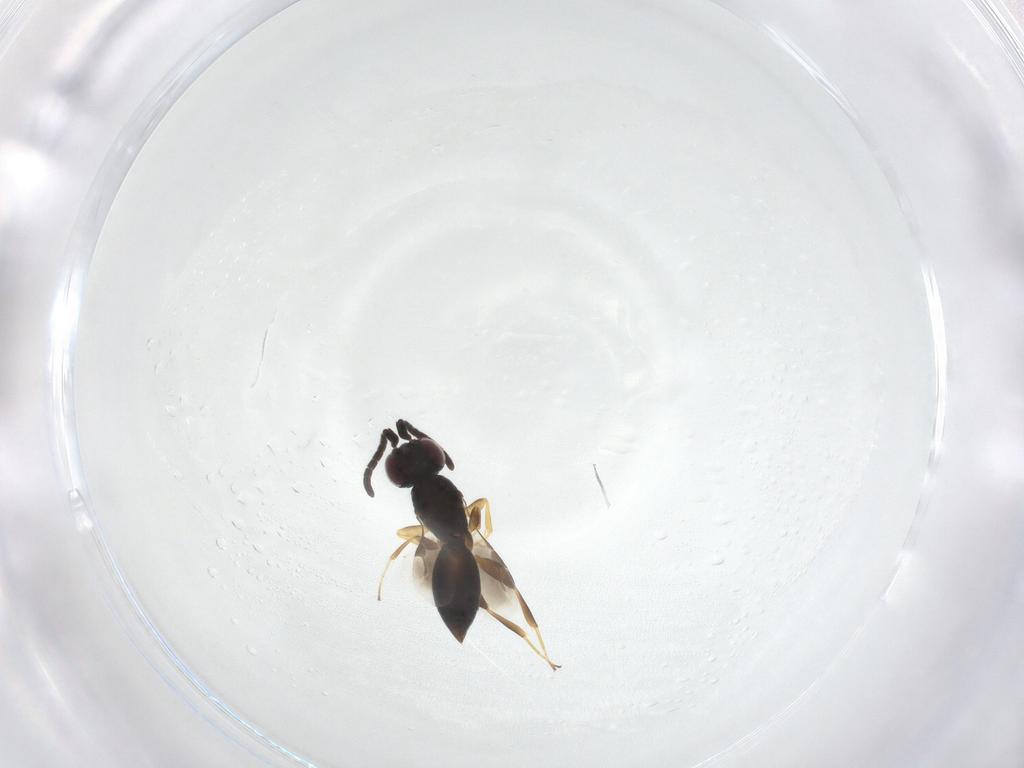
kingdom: Animalia
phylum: Arthropoda
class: Insecta
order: Hymenoptera
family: Megaspilidae
